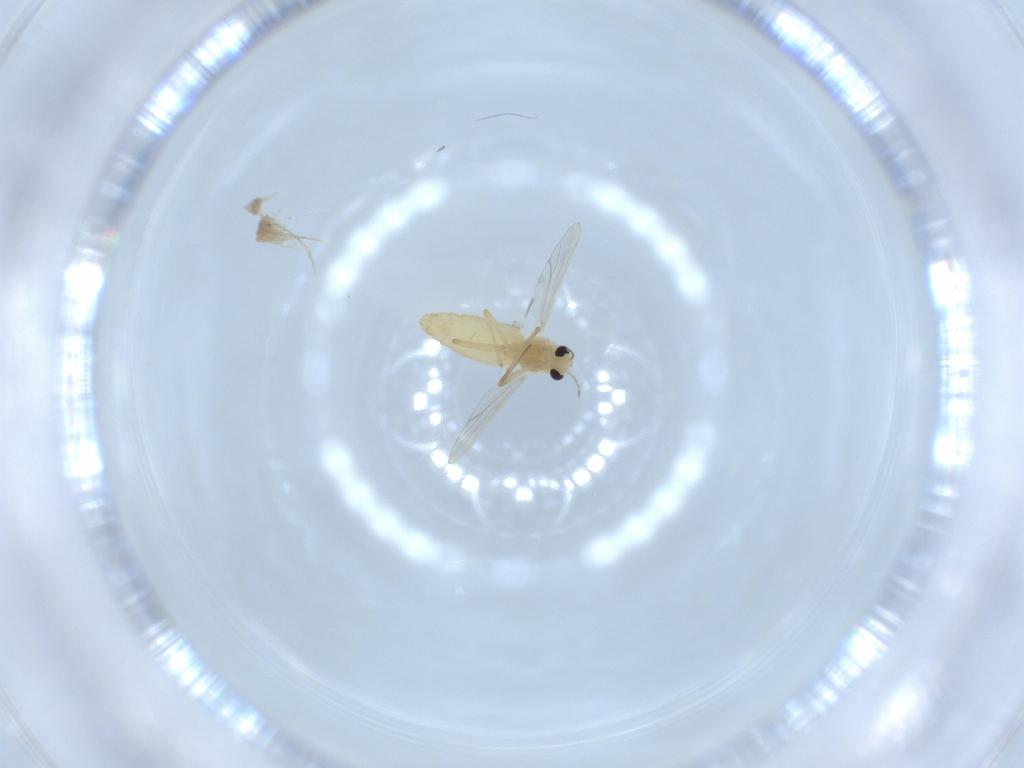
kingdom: Animalia
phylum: Arthropoda
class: Insecta
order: Diptera
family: Chironomidae
